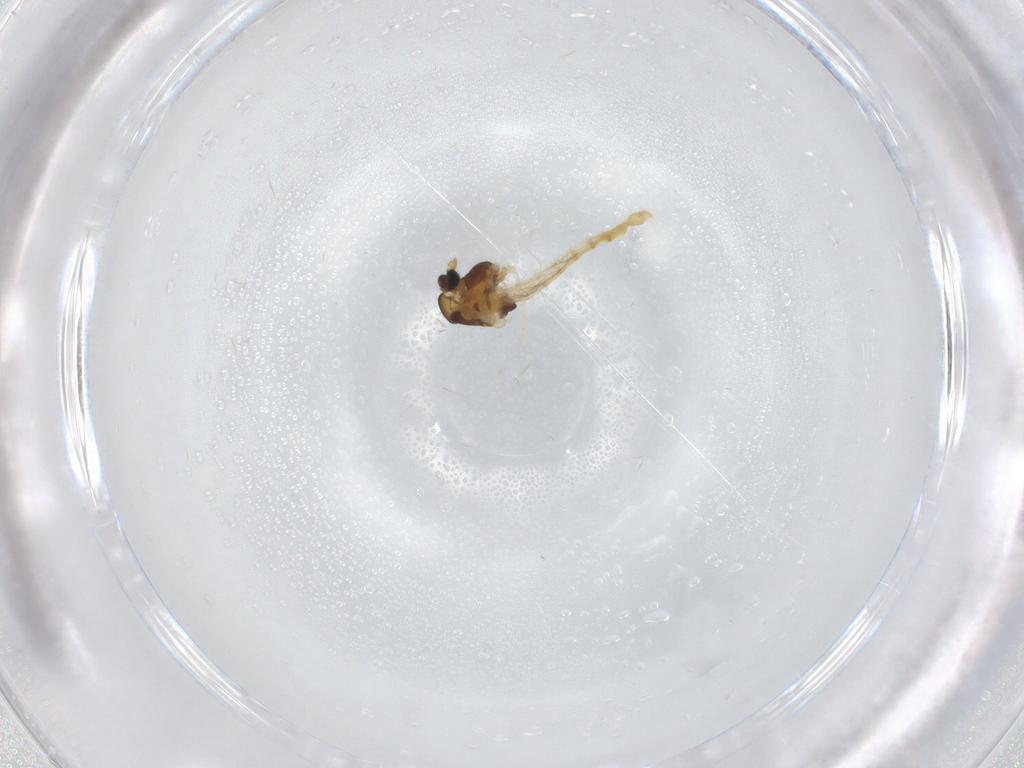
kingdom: Animalia
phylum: Arthropoda
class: Insecta
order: Diptera
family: Chironomidae
